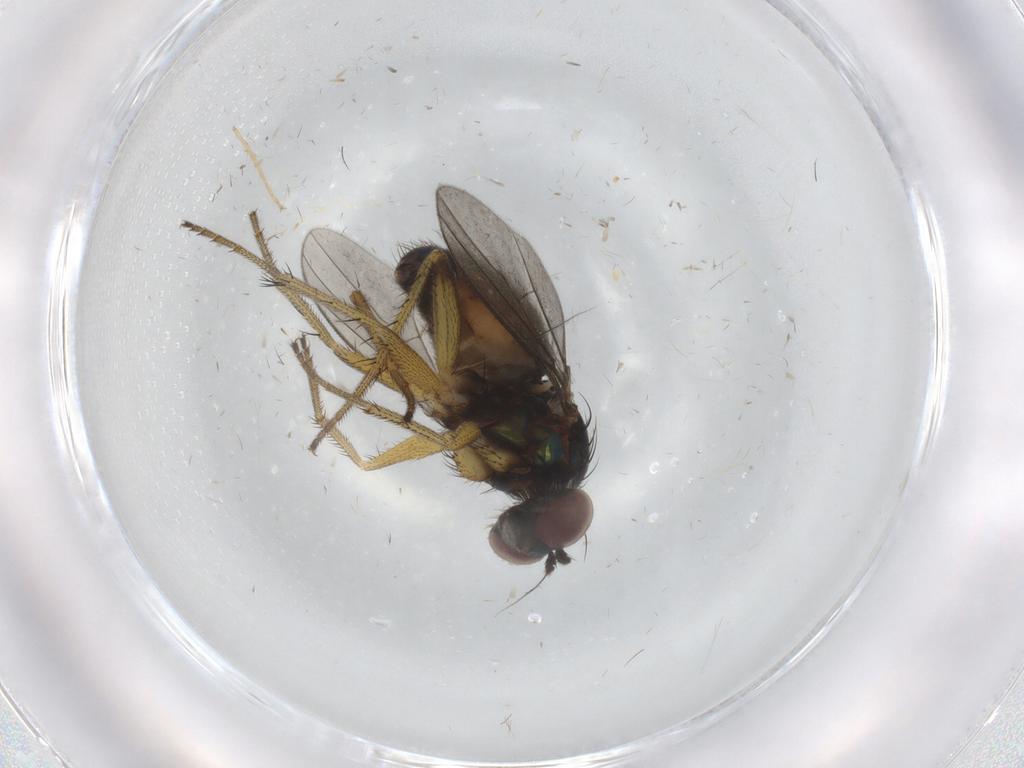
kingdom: Animalia
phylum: Arthropoda
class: Insecta
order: Diptera
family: Dolichopodidae
